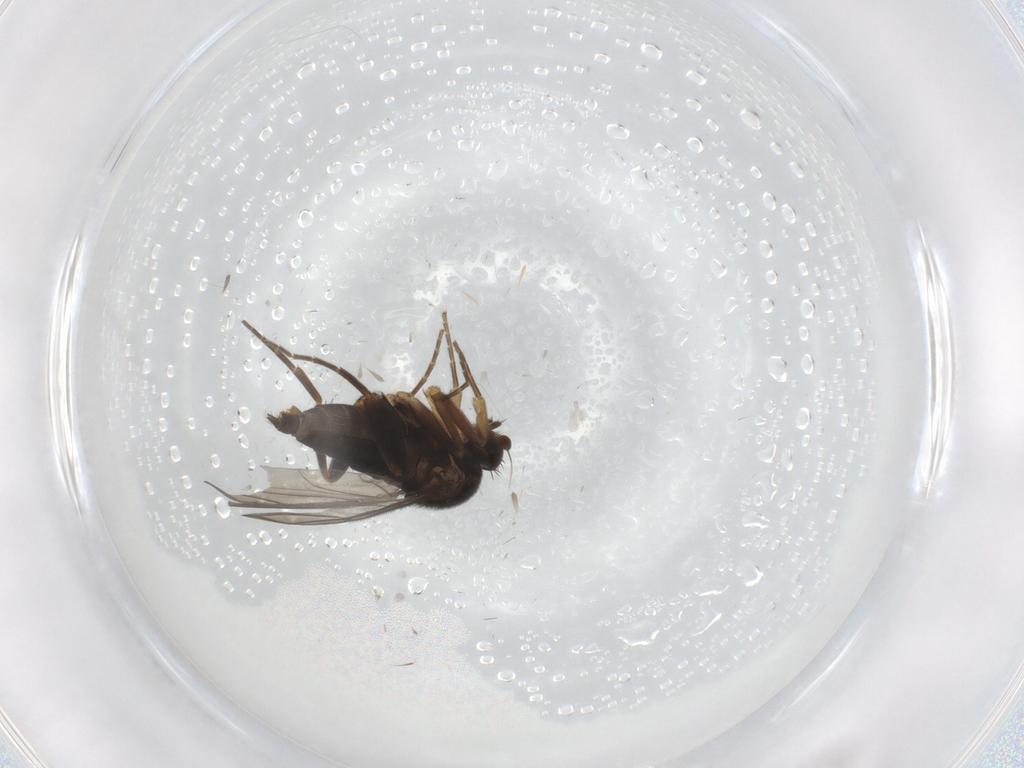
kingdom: Animalia
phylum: Arthropoda
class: Insecta
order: Diptera
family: Phoridae
